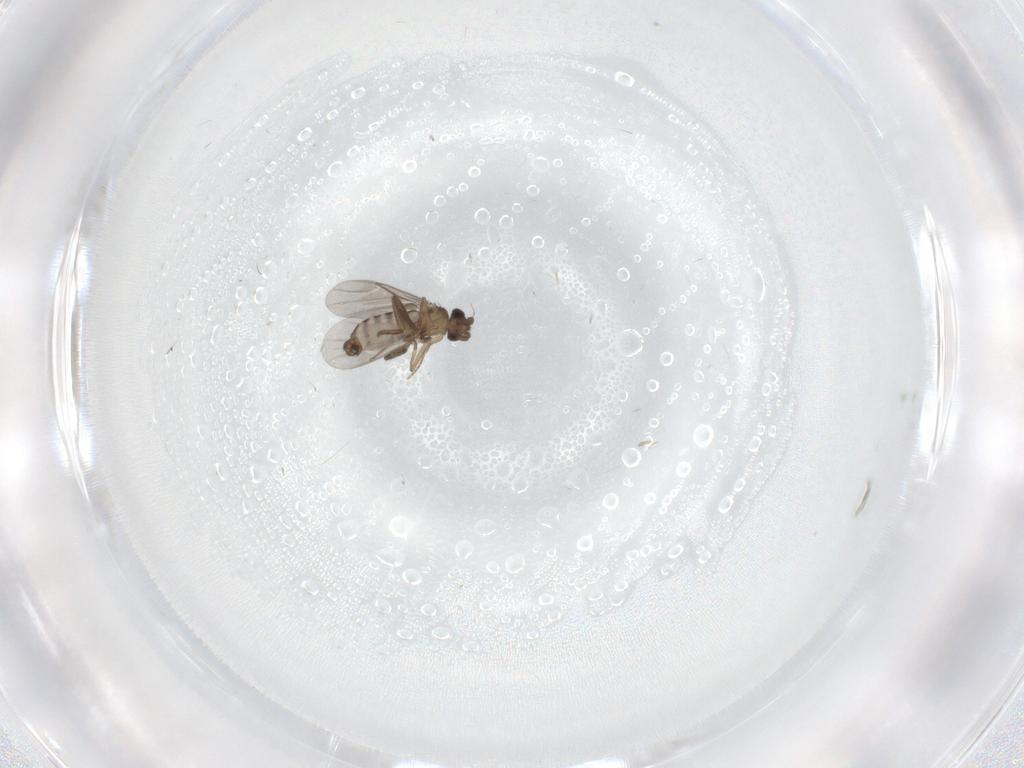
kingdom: Animalia
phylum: Arthropoda
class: Insecta
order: Diptera
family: Cecidomyiidae
